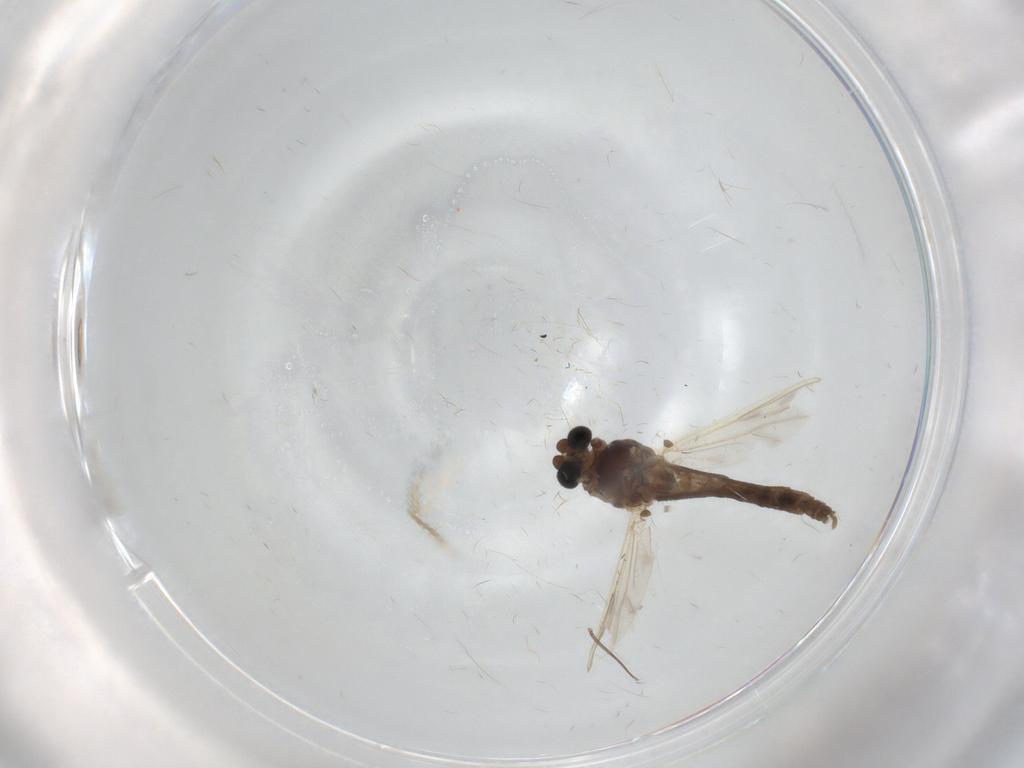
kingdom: Animalia
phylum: Arthropoda
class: Insecta
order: Diptera
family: Chironomidae
